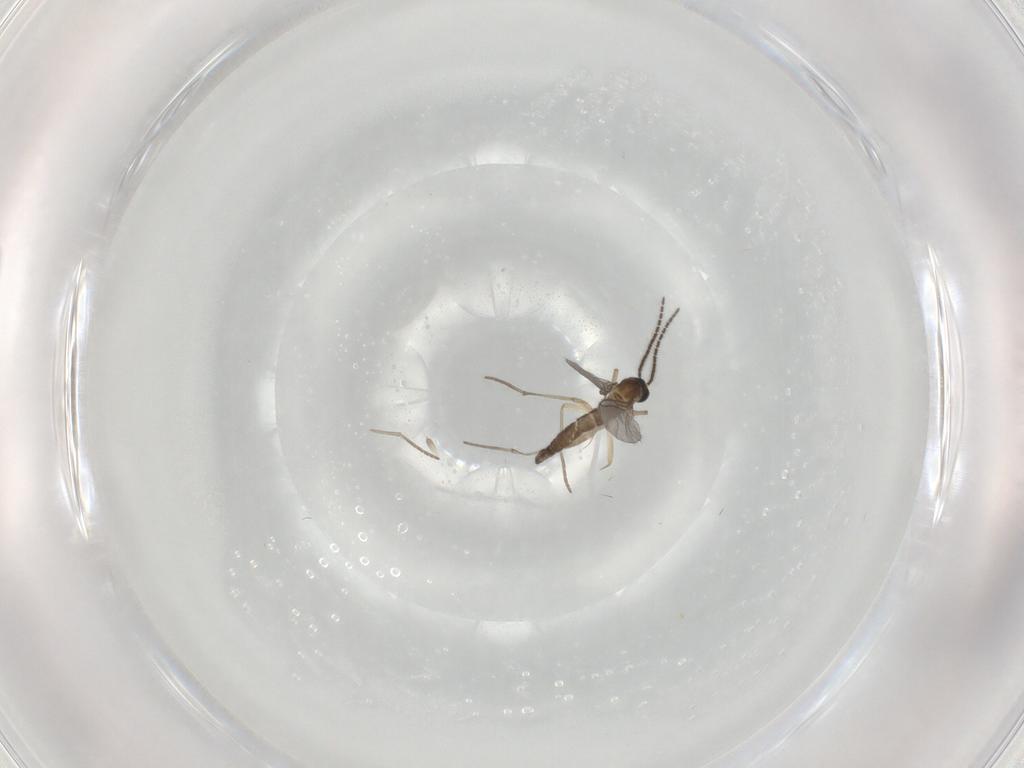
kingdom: Animalia
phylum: Arthropoda
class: Insecta
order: Diptera
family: Sciaridae
